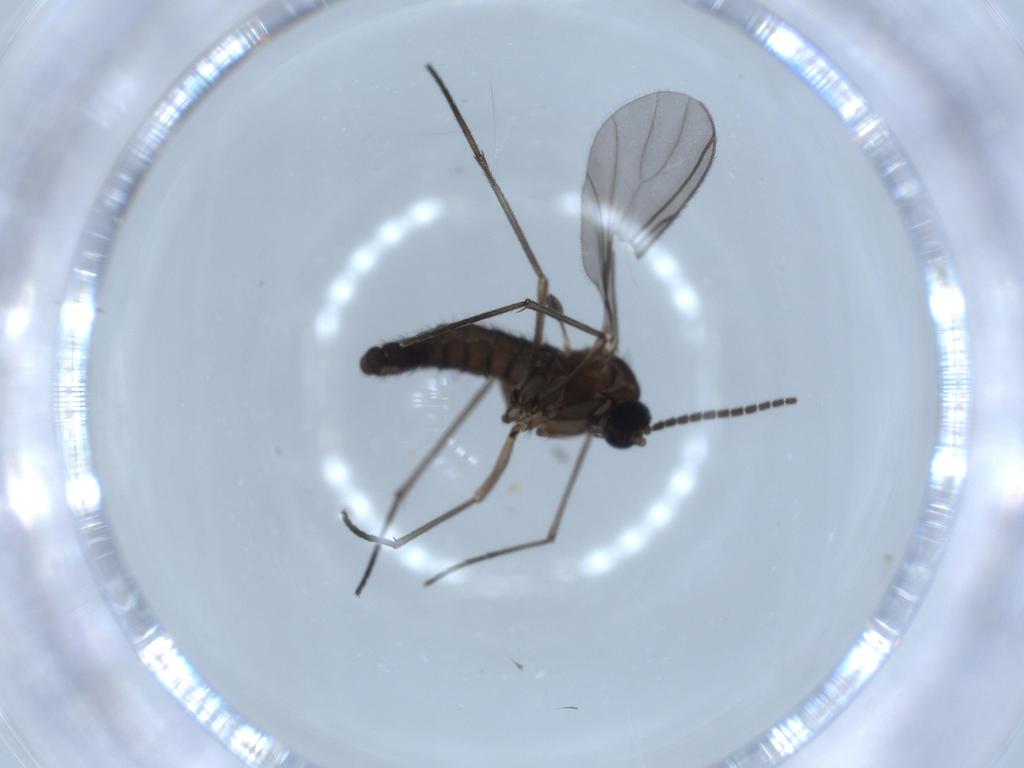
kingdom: Animalia
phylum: Arthropoda
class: Insecta
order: Diptera
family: Sciaridae
